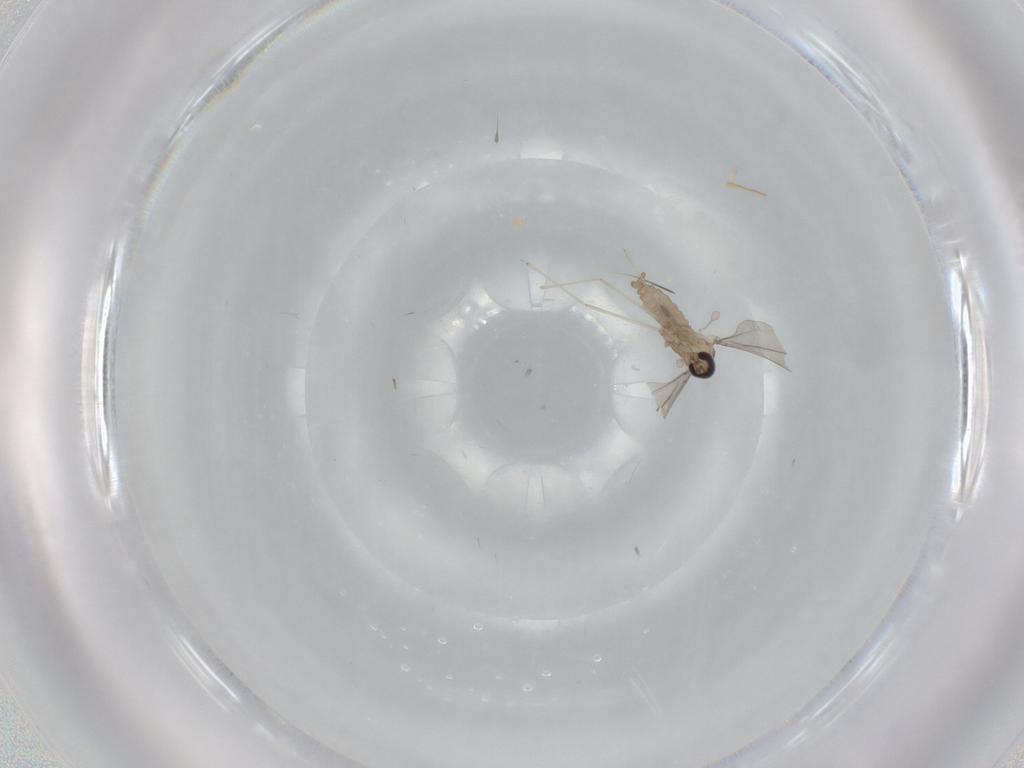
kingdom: Animalia
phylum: Arthropoda
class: Insecta
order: Diptera
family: Cecidomyiidae
